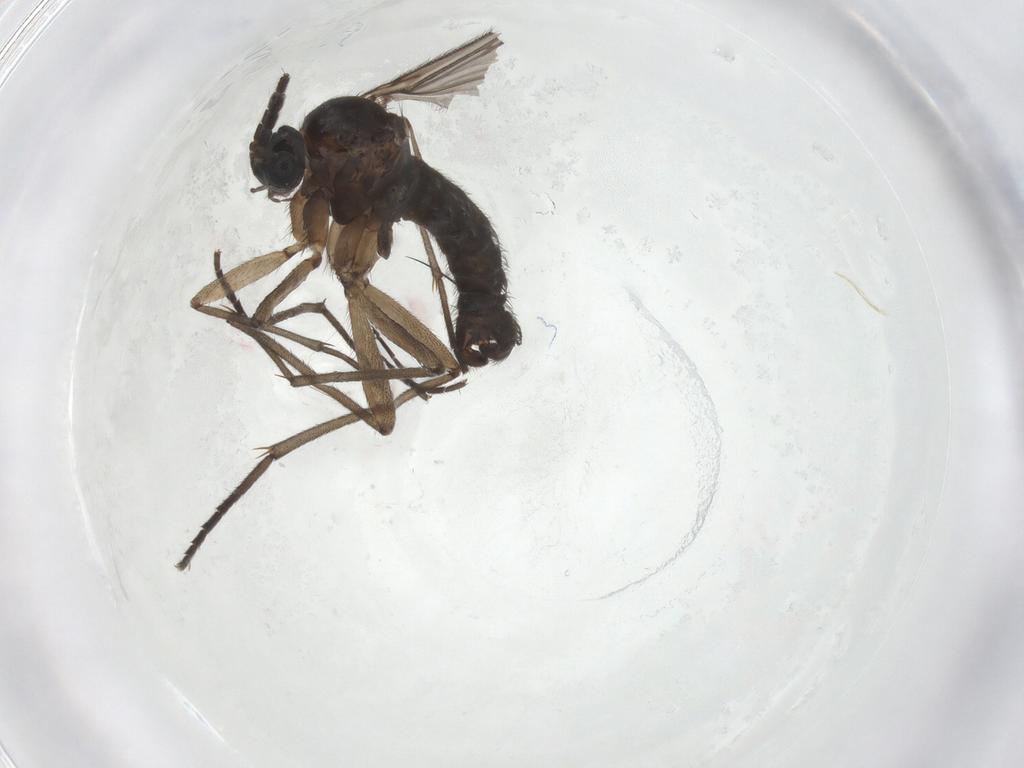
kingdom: Animalia
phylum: Arthropoda
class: Insecta
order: Diptera
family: Sciaridae
